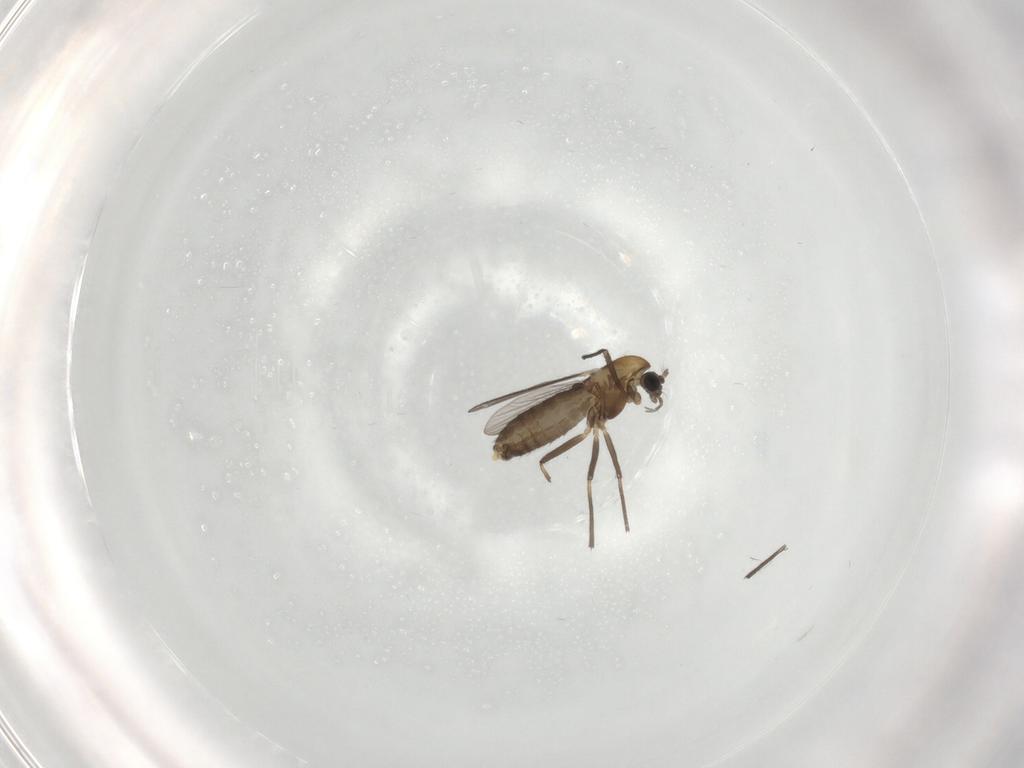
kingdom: Animalia
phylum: Arthropoda
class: Insecta
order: Diptera
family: Chironomidae
